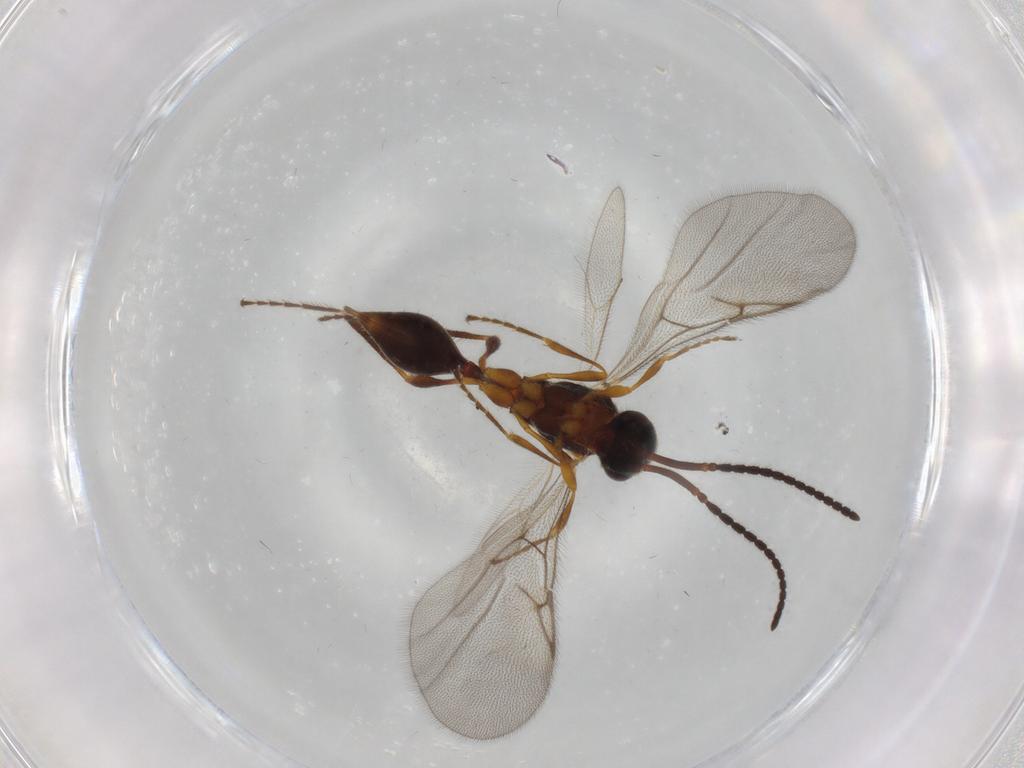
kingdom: Animalia
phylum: Arthropoda
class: Insecta
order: Hymenoptera
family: Diapriidae
